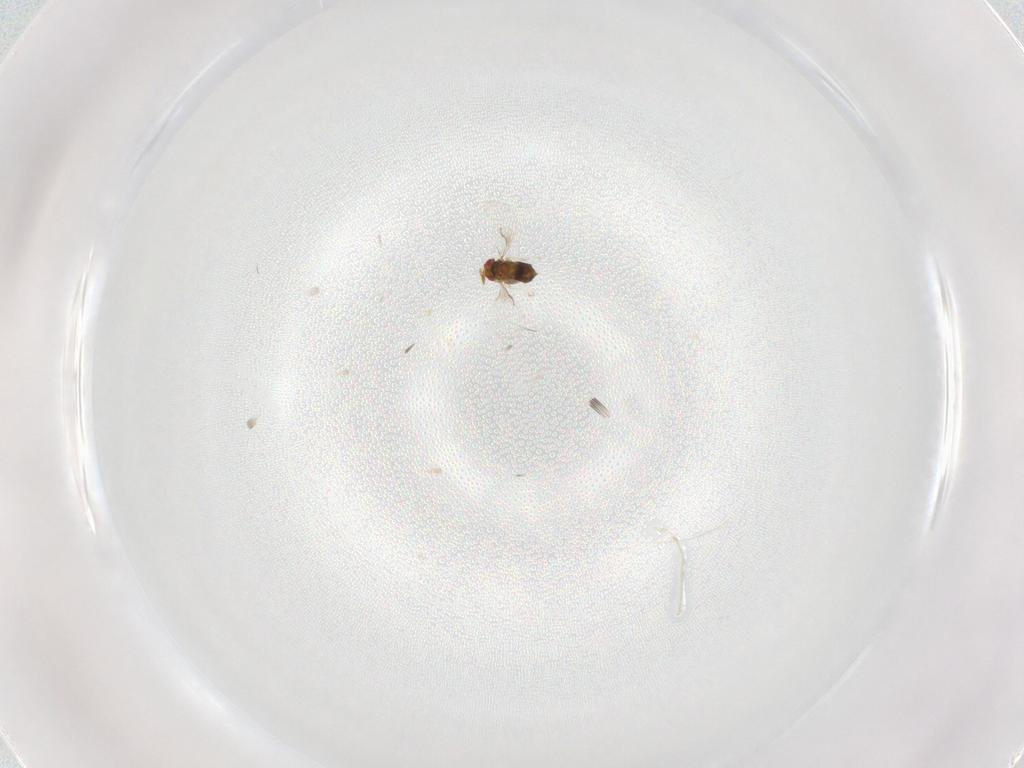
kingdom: Animalia
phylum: Arthropoda
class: Insecta
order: Hymenoptera
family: Trichogrammatidae
